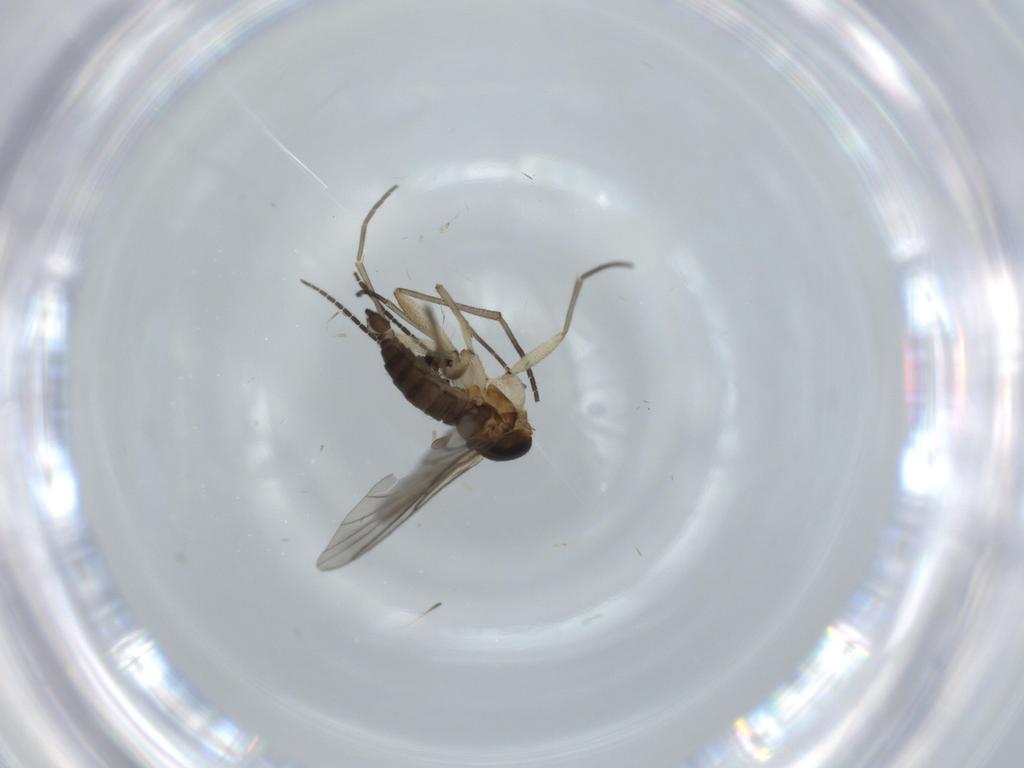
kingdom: Animalia
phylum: Arthropoda
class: Insecta
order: Diptera
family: Sciaridae
